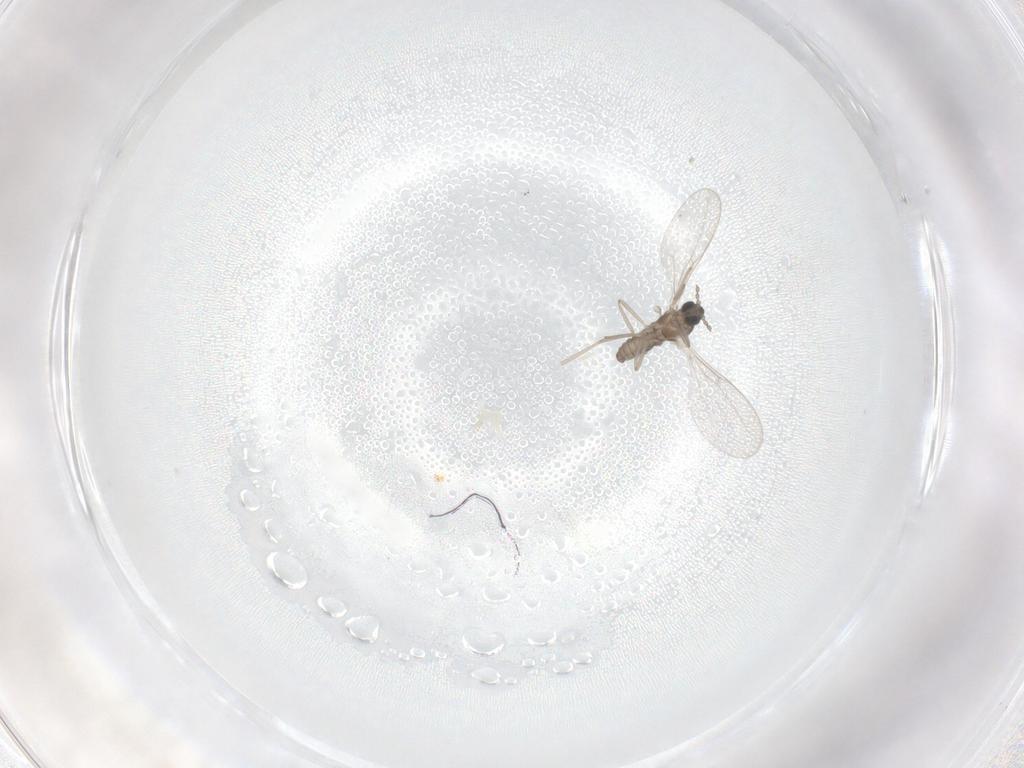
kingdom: Animalia
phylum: Arthropoda
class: Insecta
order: Diptera
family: Cecidomyiidae
